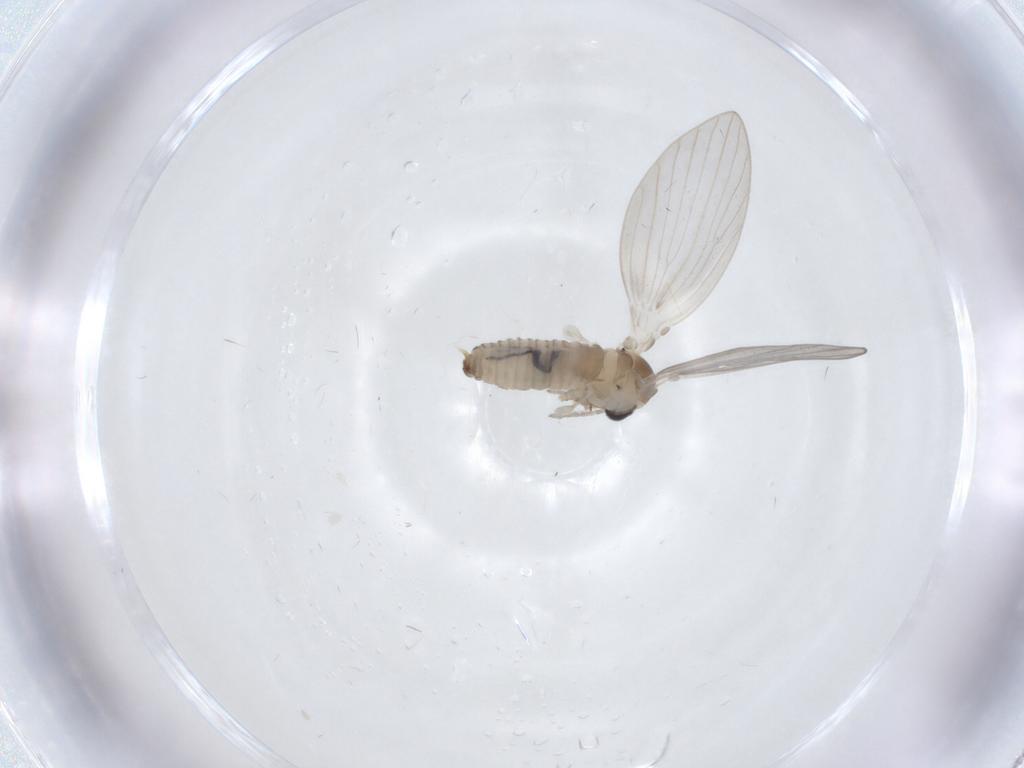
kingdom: Animalia
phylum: Arthropoda
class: Insecta
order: Diptera
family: Psychodidae
